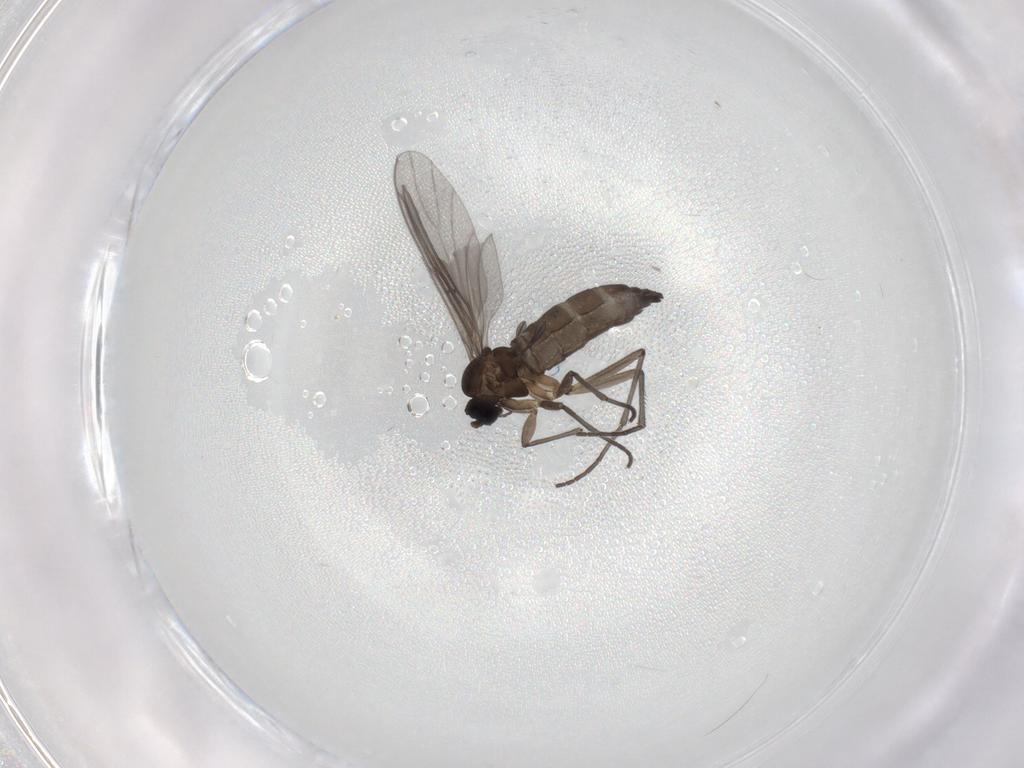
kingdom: Animalia
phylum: Arthropoda
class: Insecta
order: Diptera
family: Sciaridae
